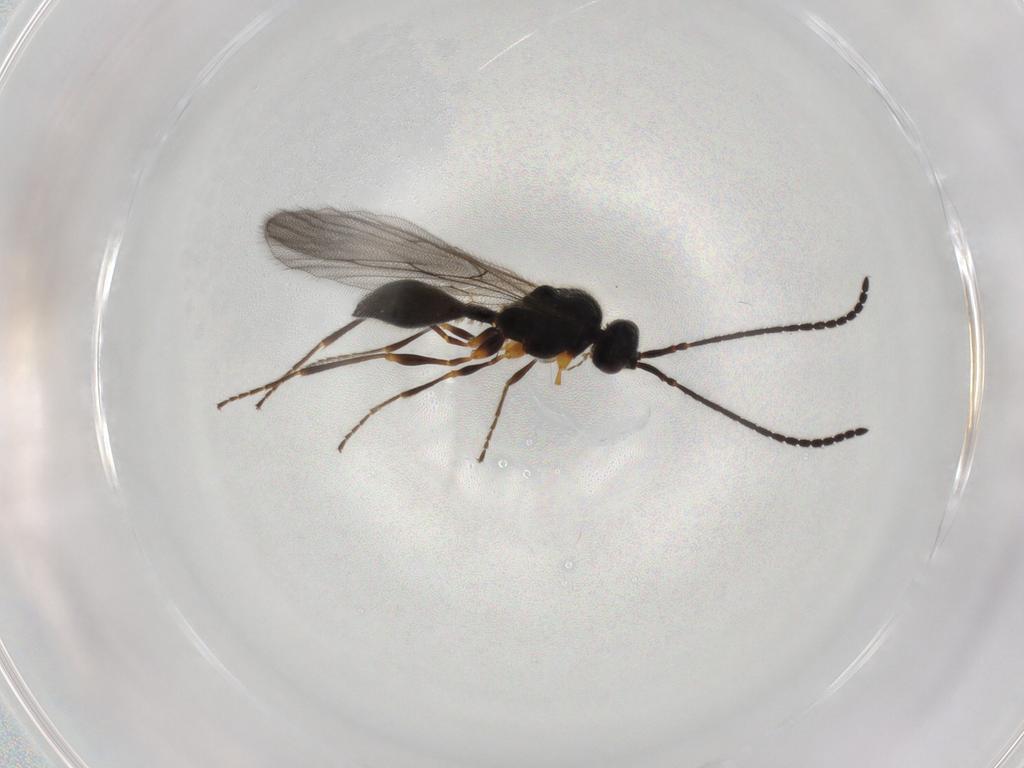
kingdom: Animalia
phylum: Arthropoda
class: Insecta
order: Hymenoptera
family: Diapriidae
